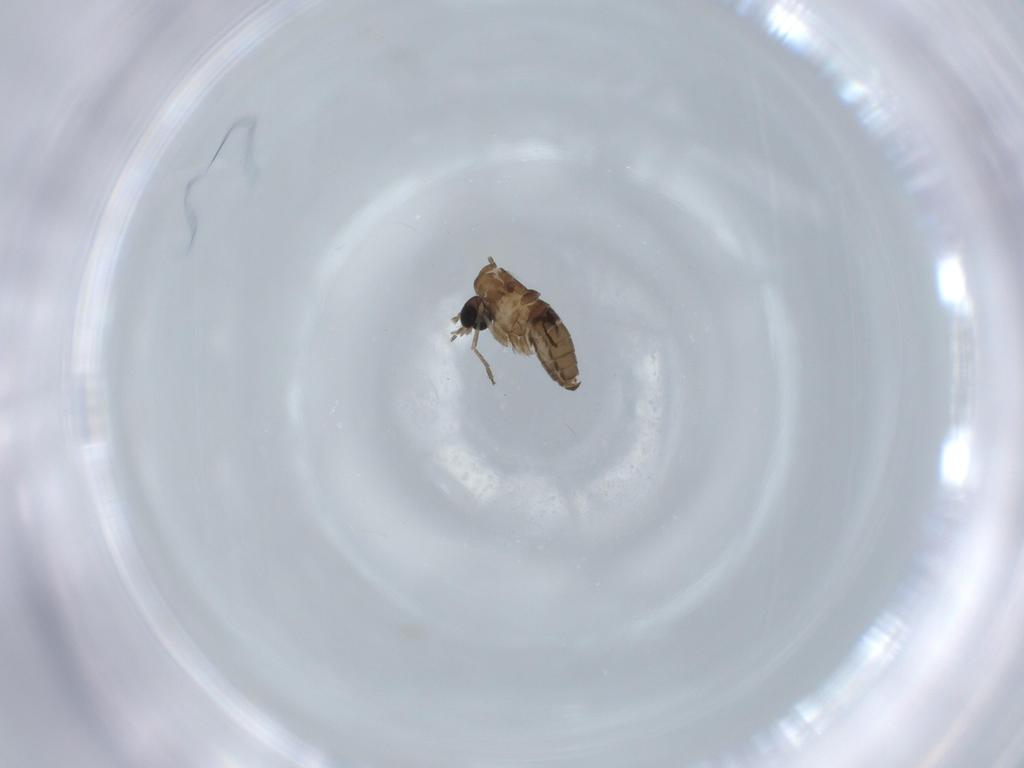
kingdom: Animalia
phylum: Arthropoda
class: Insecta
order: Diptera
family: Psychodidae
